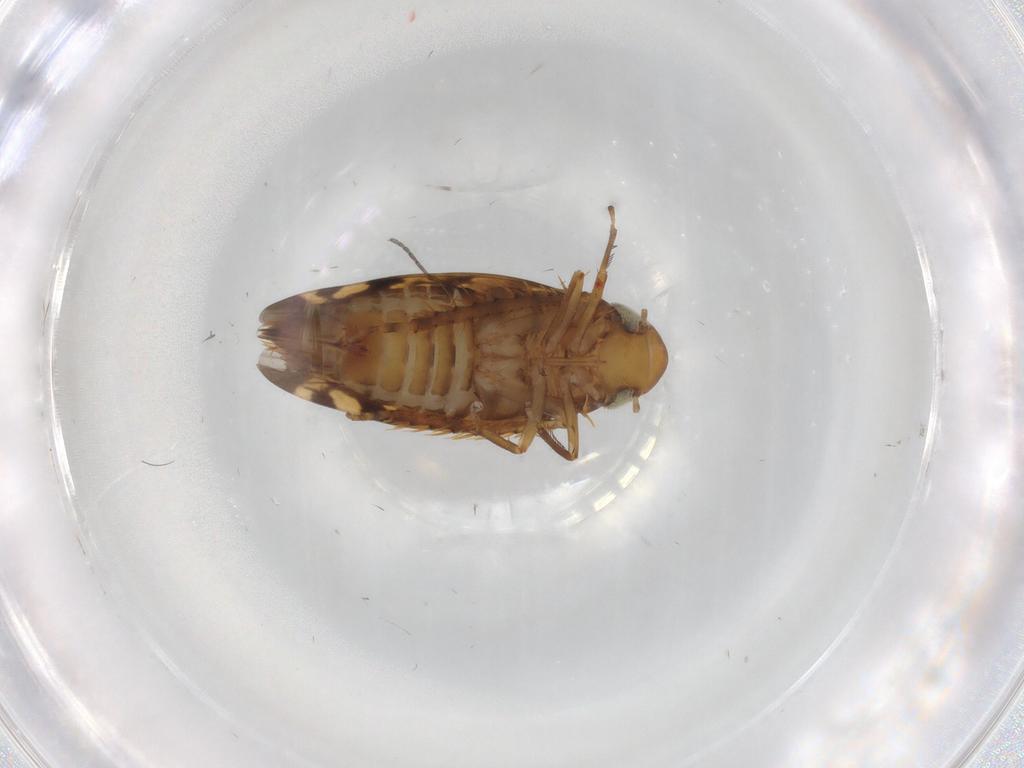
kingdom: Animalia
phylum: Arthropoda
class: Insecta
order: Hemiptera
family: Cicadellidae
